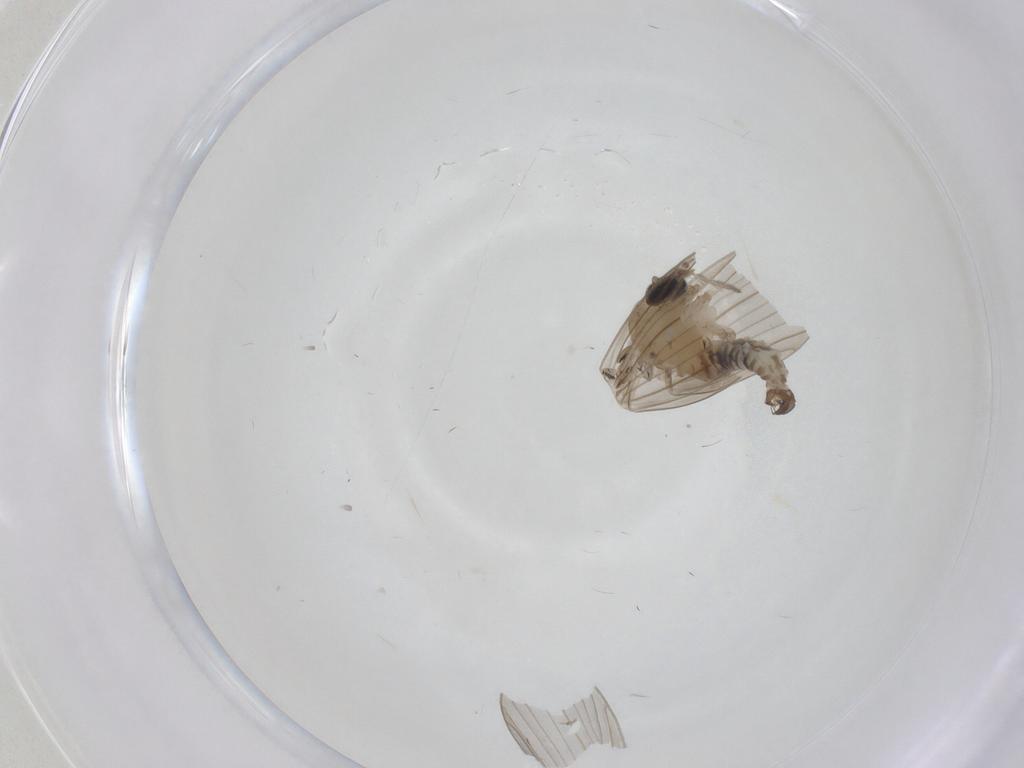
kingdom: Animalia
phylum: Arthropoda
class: Insecta
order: Diptera
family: Psychodidae
